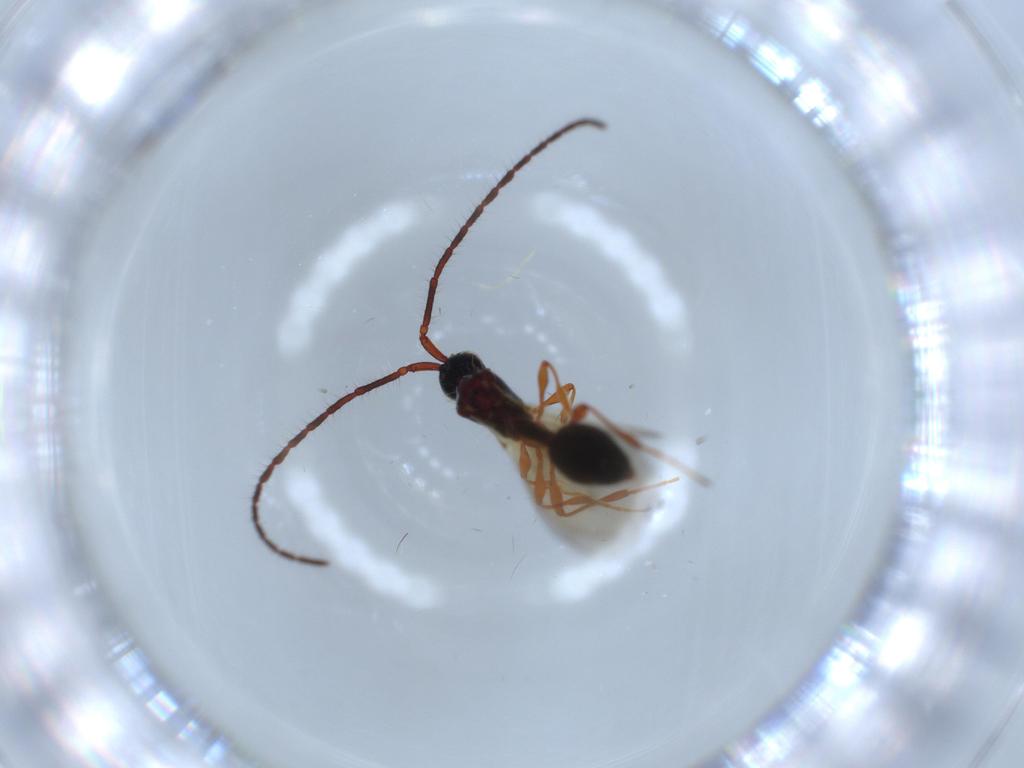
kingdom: Animalia
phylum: Arthropoda
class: Insecta
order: Hymenoptera
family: Diapriidae
